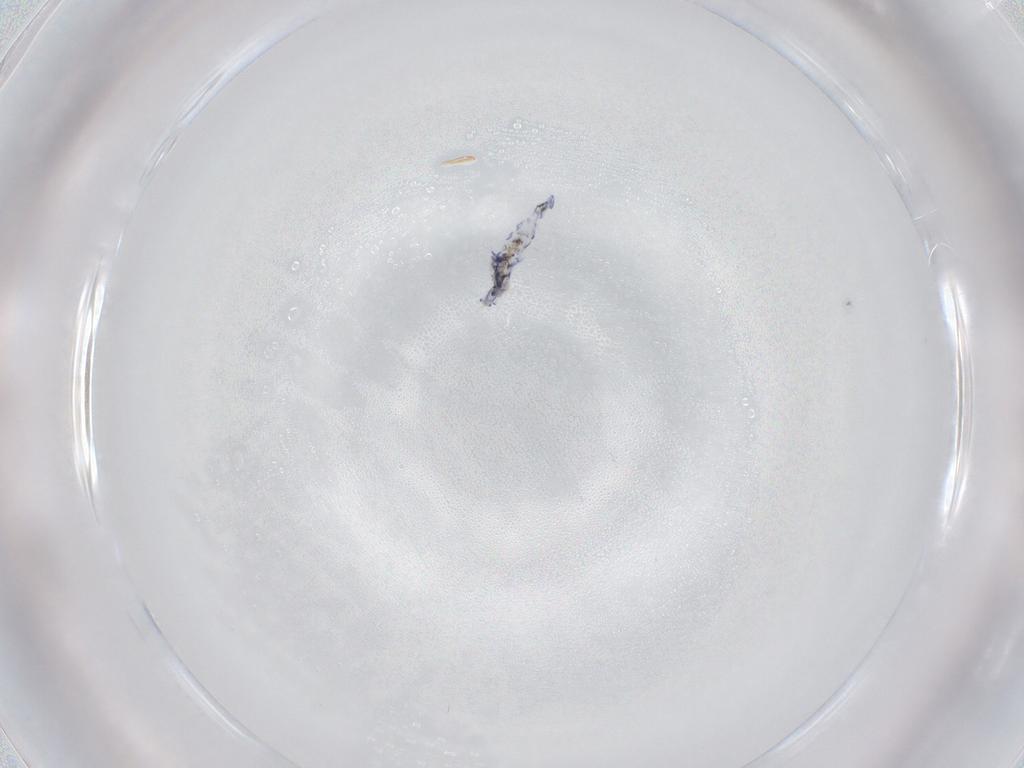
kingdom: Animalia
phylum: Arthropoda
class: Collembola
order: Entomobryomorpha
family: Entomobryidae
